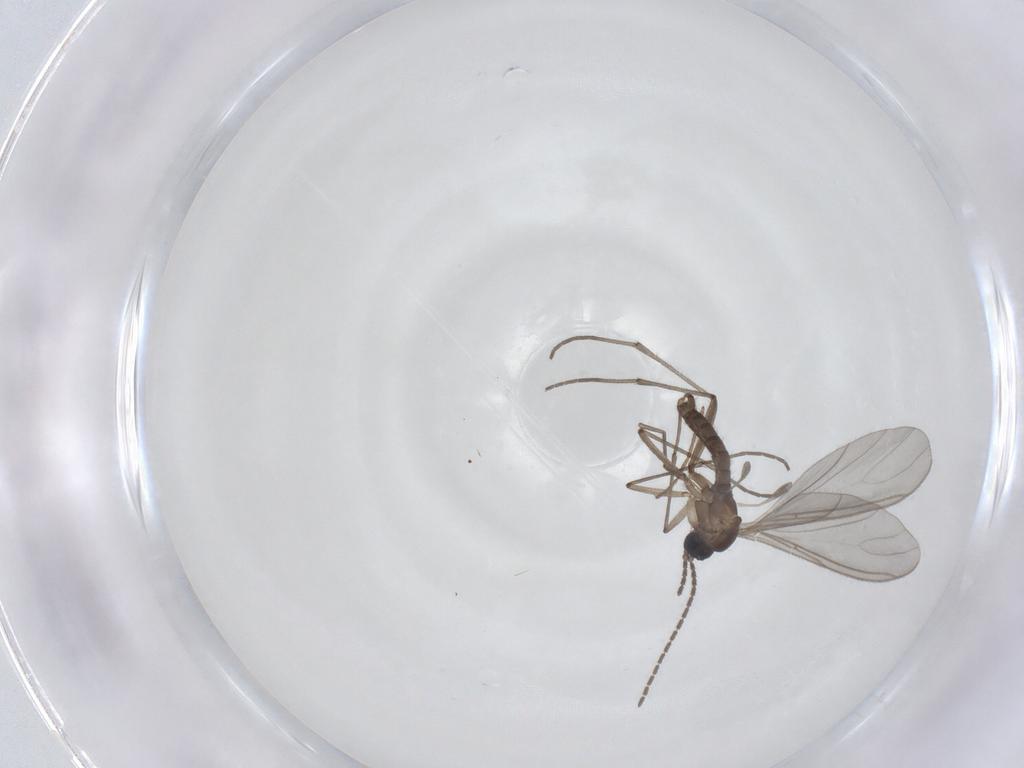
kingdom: Animalia
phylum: Arthropoda
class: Insecta
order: Diptera
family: Sciaridae
